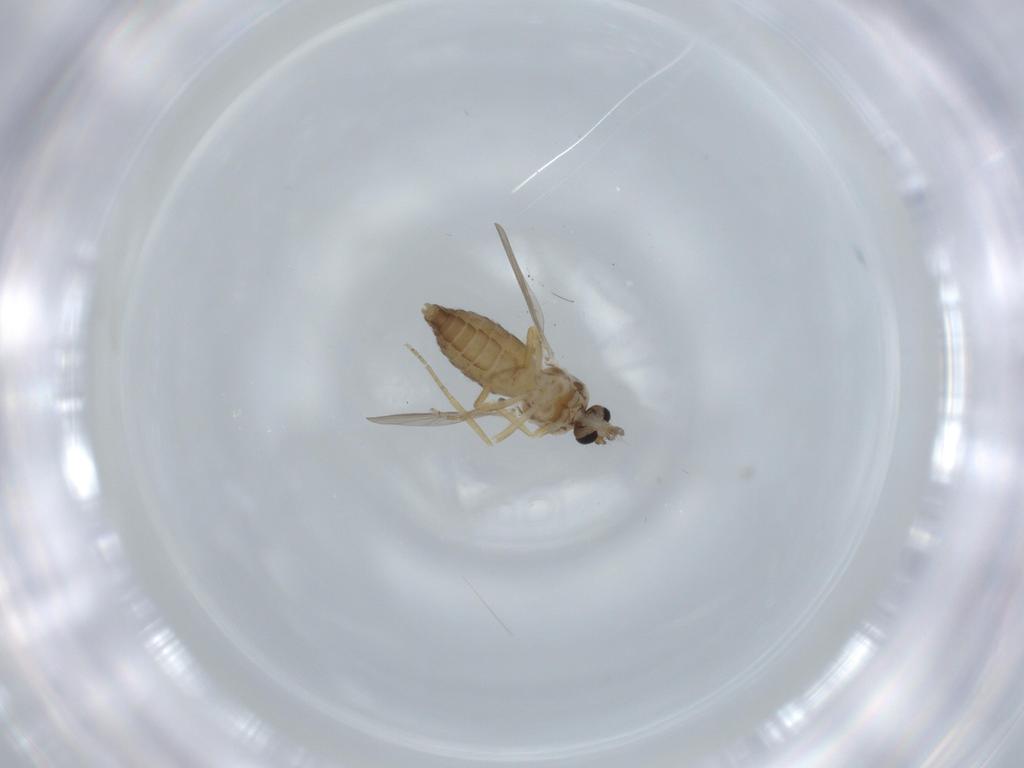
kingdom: Animalia
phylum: Arthropoda
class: Insecta
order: Diptera
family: Ceratopogonidae
